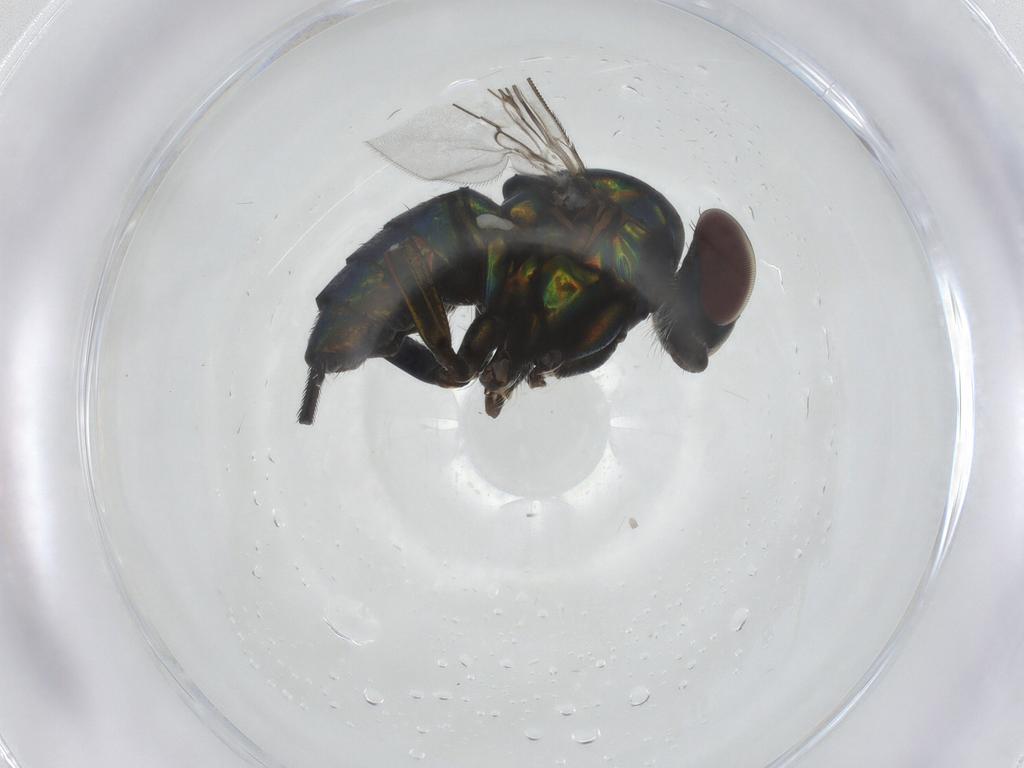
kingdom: Animalia
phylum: Arthropoda
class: Insecta
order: Diptera
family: Dolichopodidae
